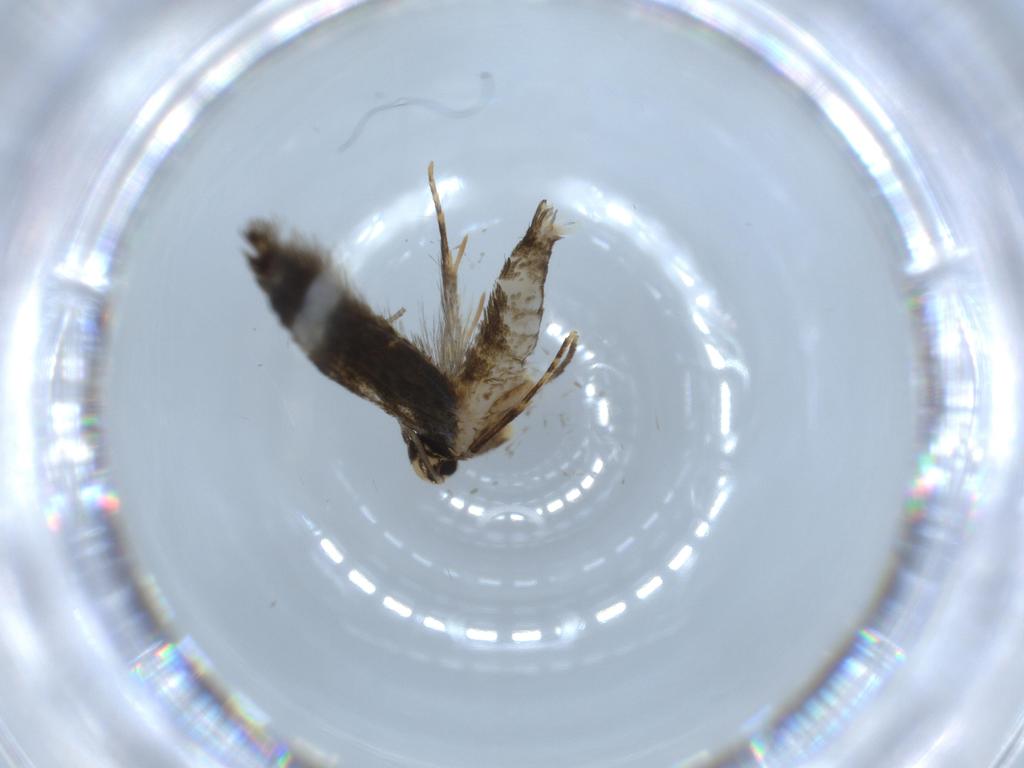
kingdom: Animalia
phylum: Arthropoda
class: Insecta
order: Lepidoptera
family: Tineidae
